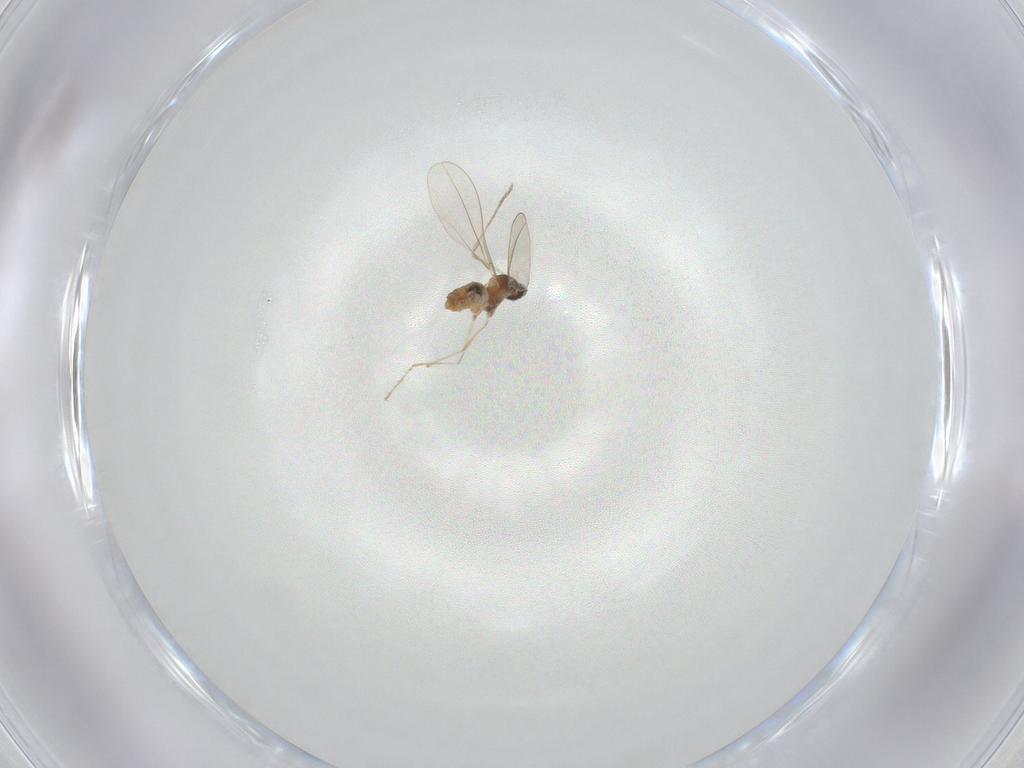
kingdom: Animalia
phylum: Arthropoda
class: Insecta
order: Diptera
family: Cecidomyiidae
